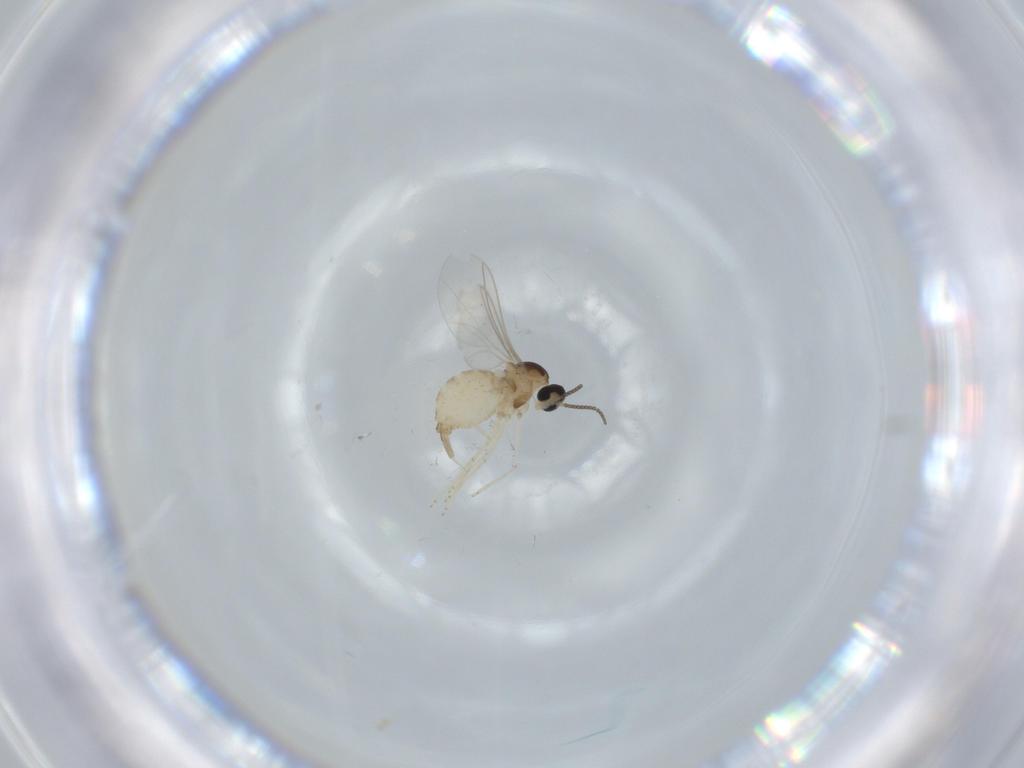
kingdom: Animalia
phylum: Arthropoda
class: Insecta
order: Diptera
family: Cecidomyiidae
